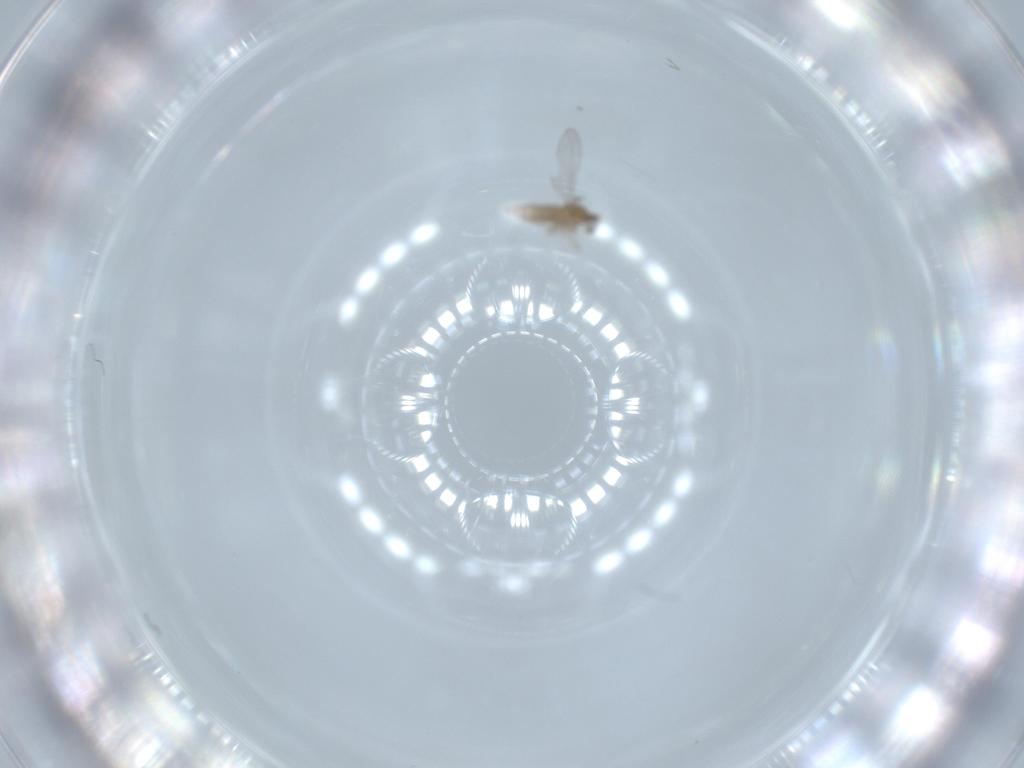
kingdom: Animalia
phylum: Arthropoda
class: Insecta
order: Diptera
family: Cecidomyiidae
